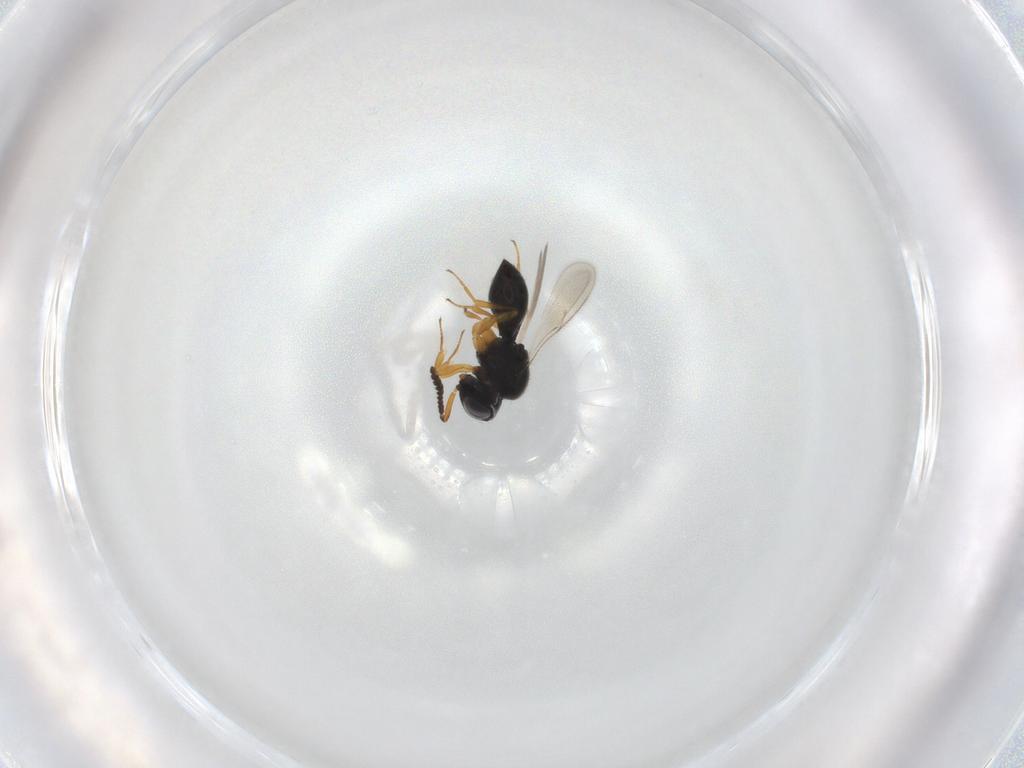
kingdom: Animalia
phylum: Arthropoda
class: Insecta
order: Hymenoptera
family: Scelionidae
